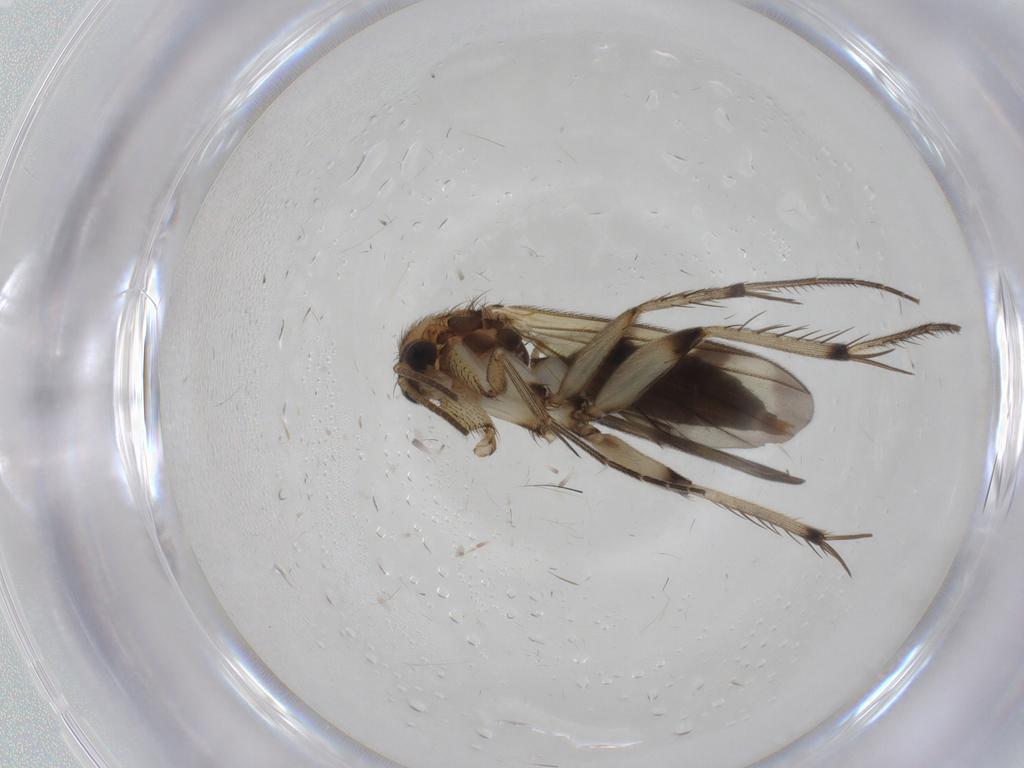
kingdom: Animalia
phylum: Arthropoda
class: Insecta
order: Diptera
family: Mycetophilidae
